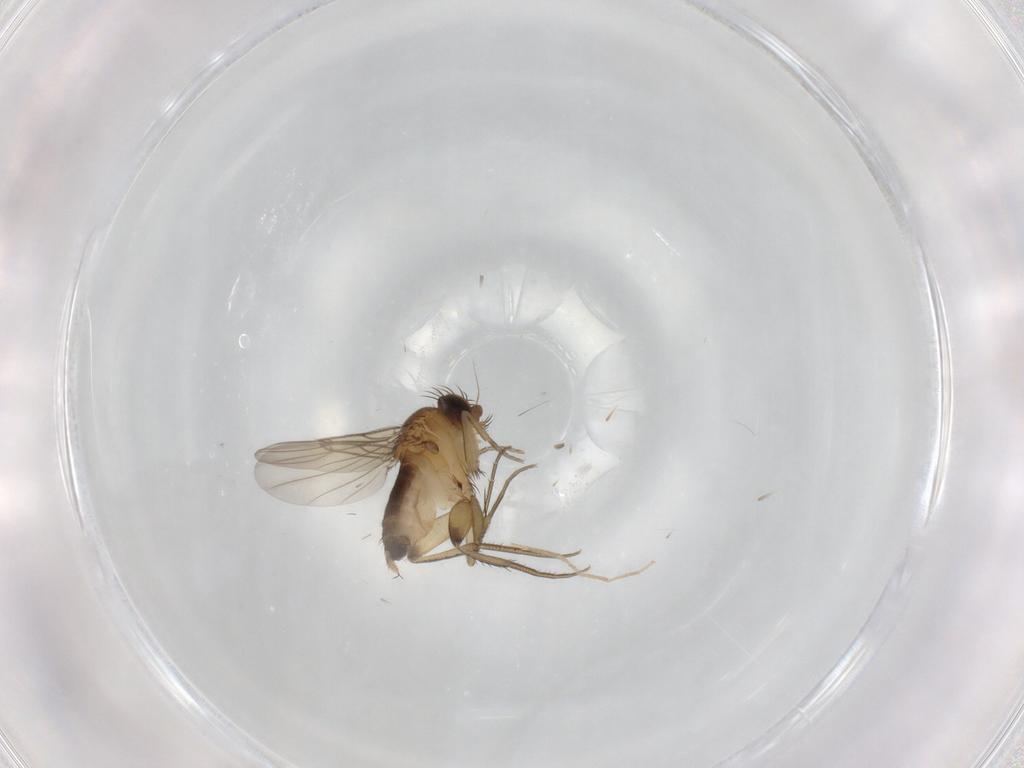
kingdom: Animalia
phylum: Arthropoda
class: Insecta
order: Diptera
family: Phoridae
